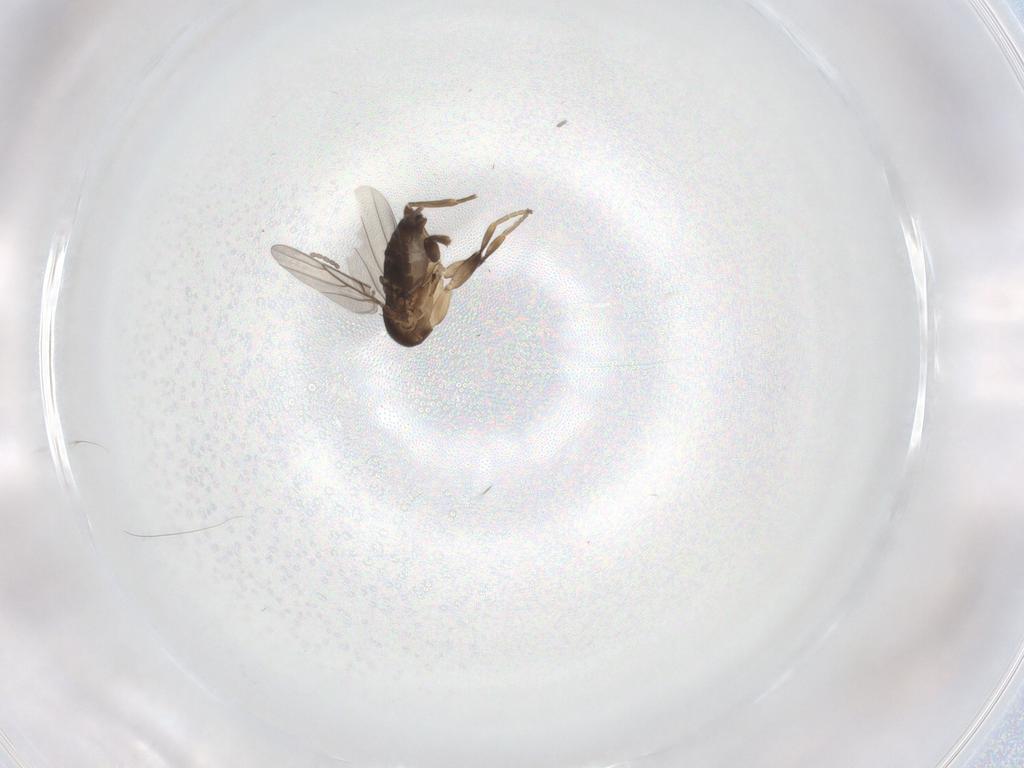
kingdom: Animalia
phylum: Arthropoda
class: Insecta
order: Diptera
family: Phoridae
